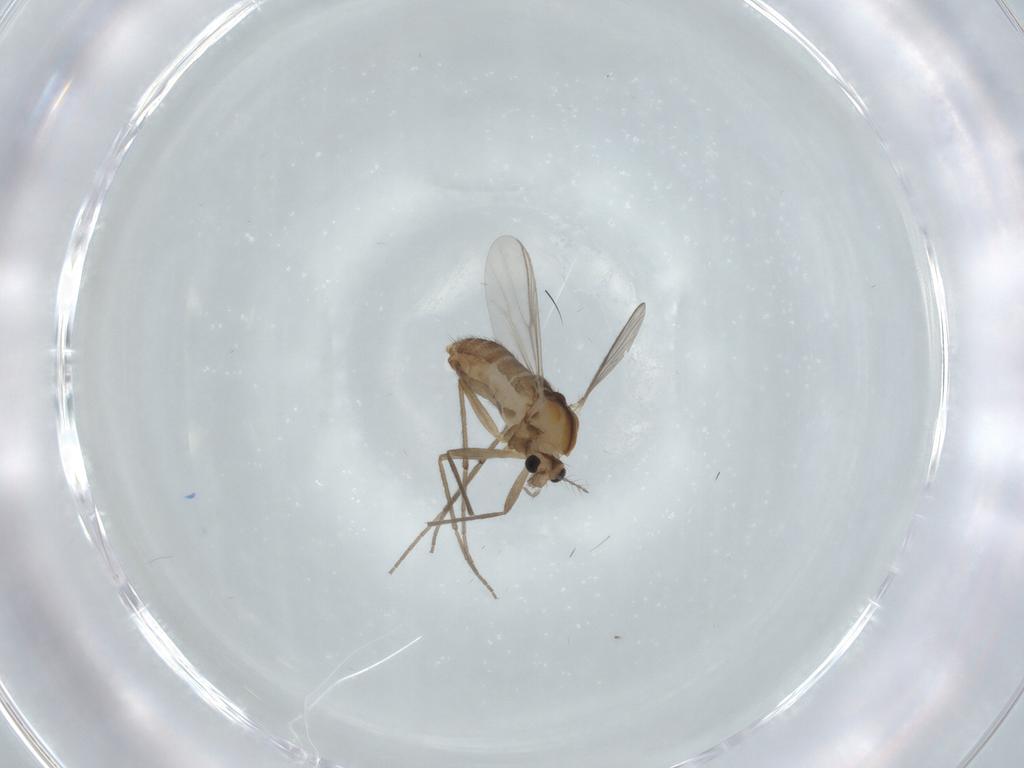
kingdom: Animalia
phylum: Arthropoda
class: Insecta
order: Diptera
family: Chironomidae
